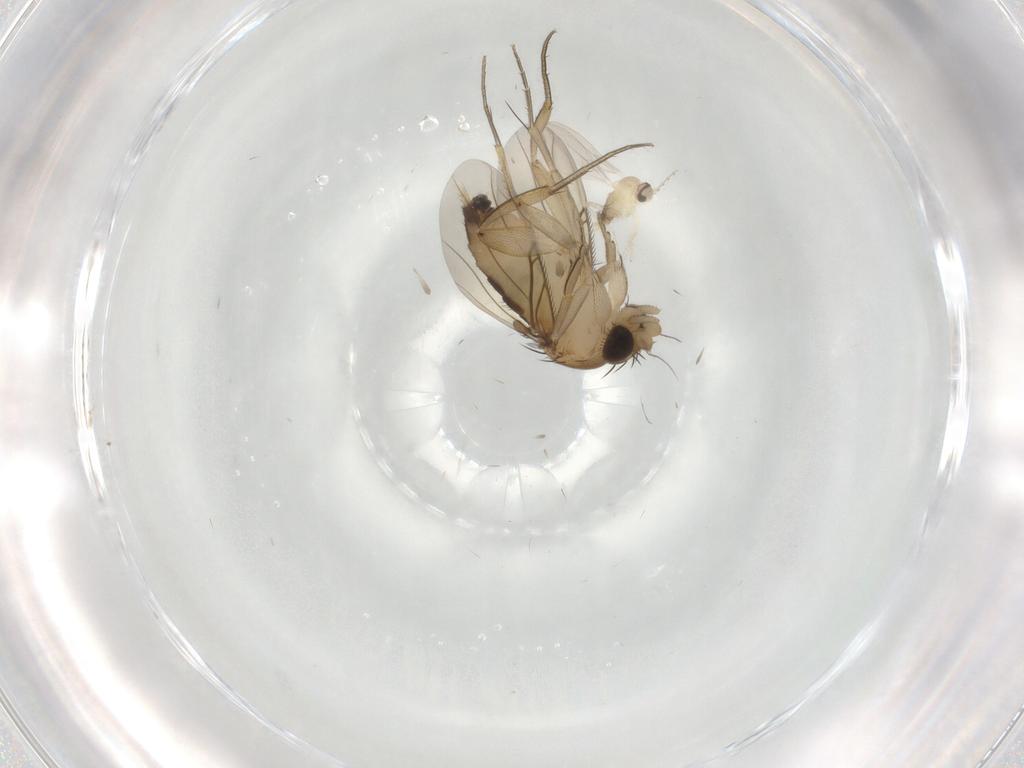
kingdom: Animalia
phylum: Arthropoda
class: Insecta
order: Diptera
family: Phoridae
